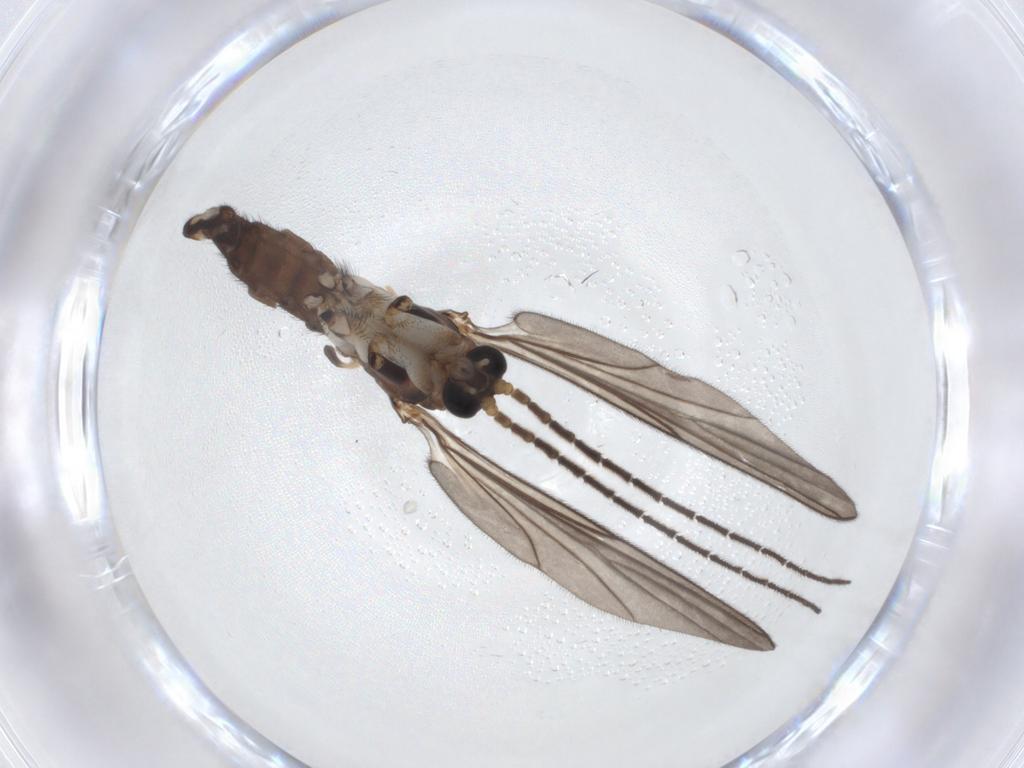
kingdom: Animalia
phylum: Arthropoda
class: Insecta
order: Diptera
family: Sciaridae
